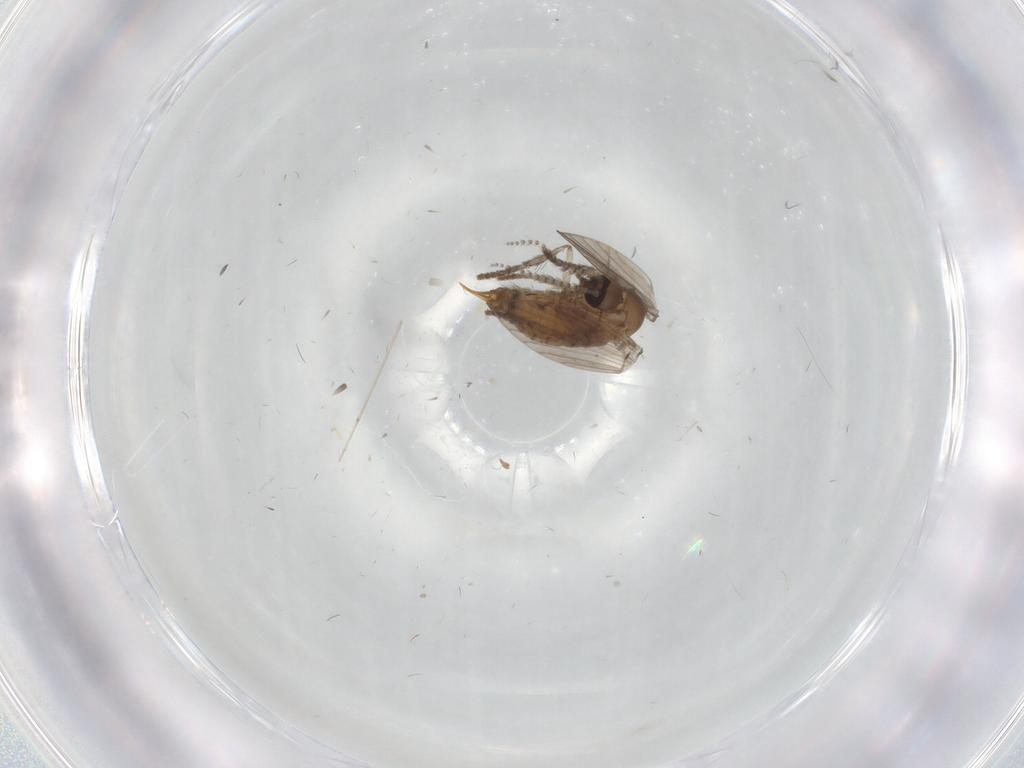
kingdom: Animalia
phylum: Arthropoda
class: Insecta
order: Diptera
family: Psychodidae
